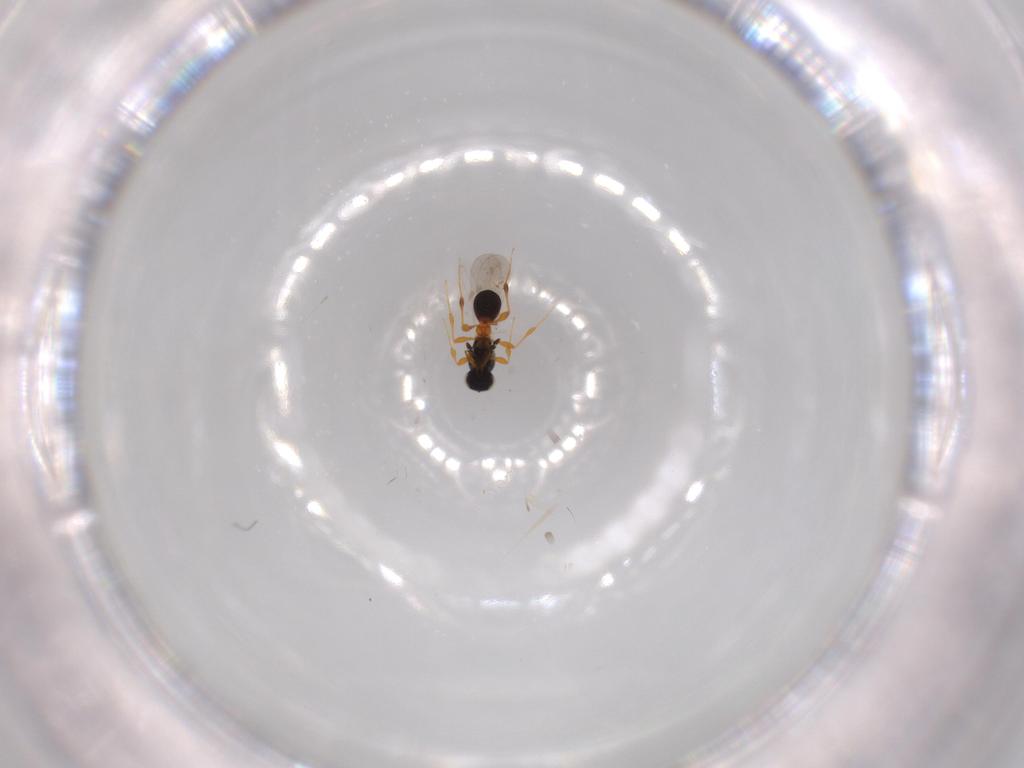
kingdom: Animalia
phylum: Arthropoda
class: Insecta
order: Hymenoptera
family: Platygastridae
